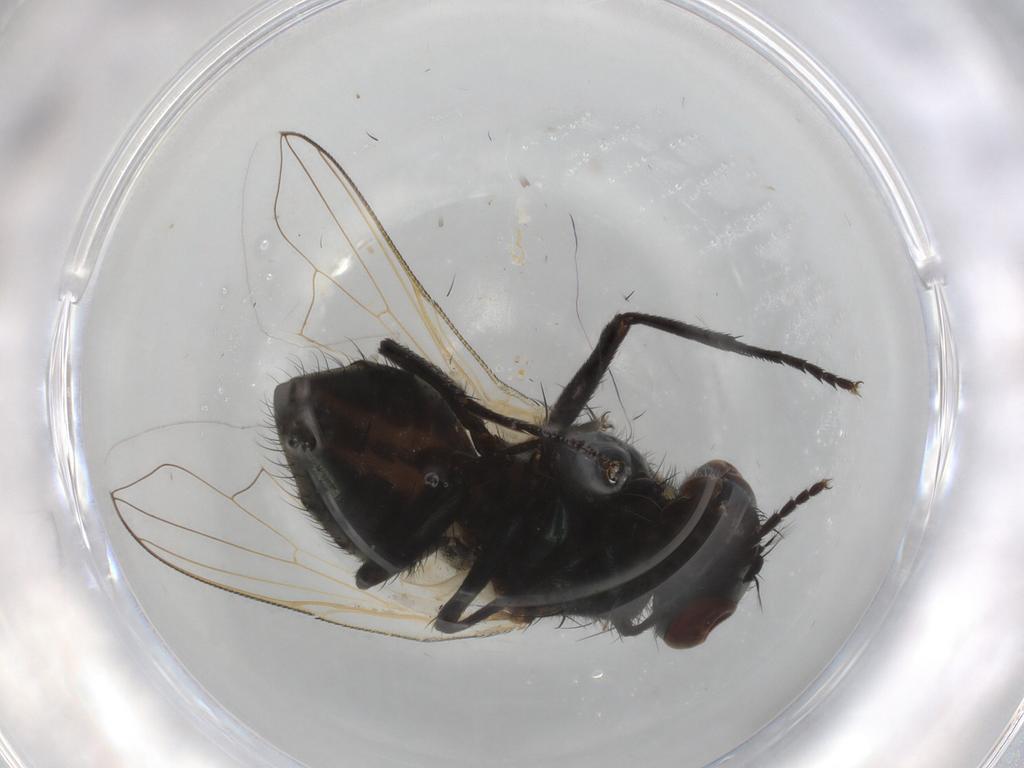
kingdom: Animalia
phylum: Arthropoda
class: Insecta
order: Diptera
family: Muscidae
